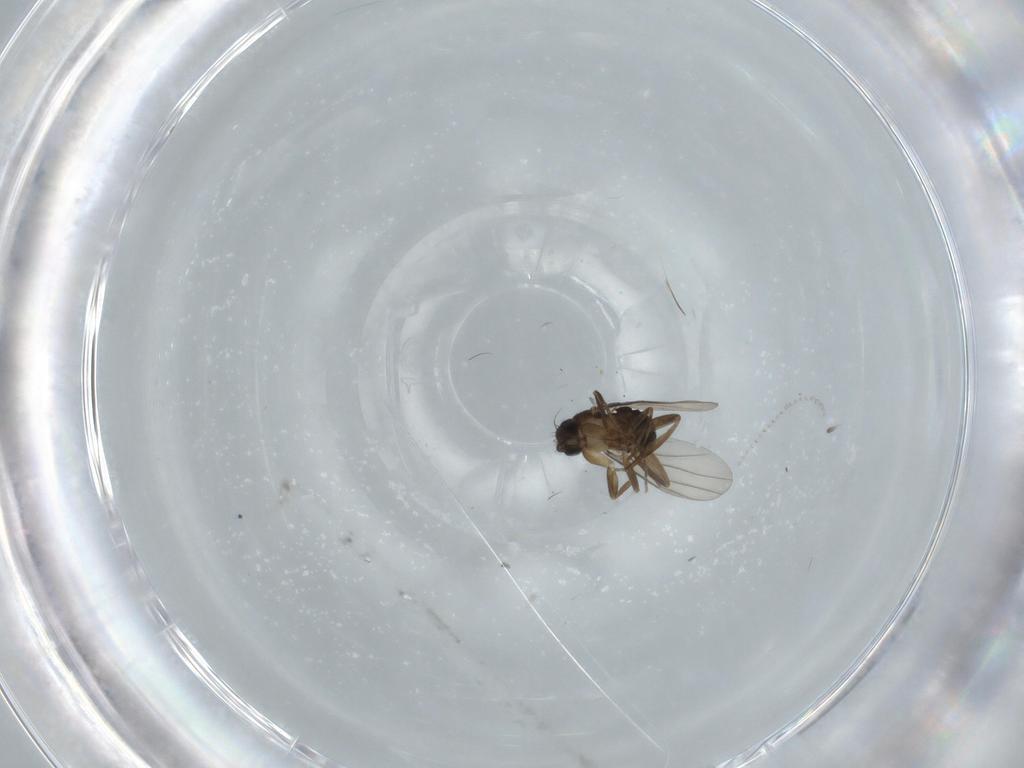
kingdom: Animalia
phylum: Arthropoda
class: Insecta
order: Diptera
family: Phoridae
